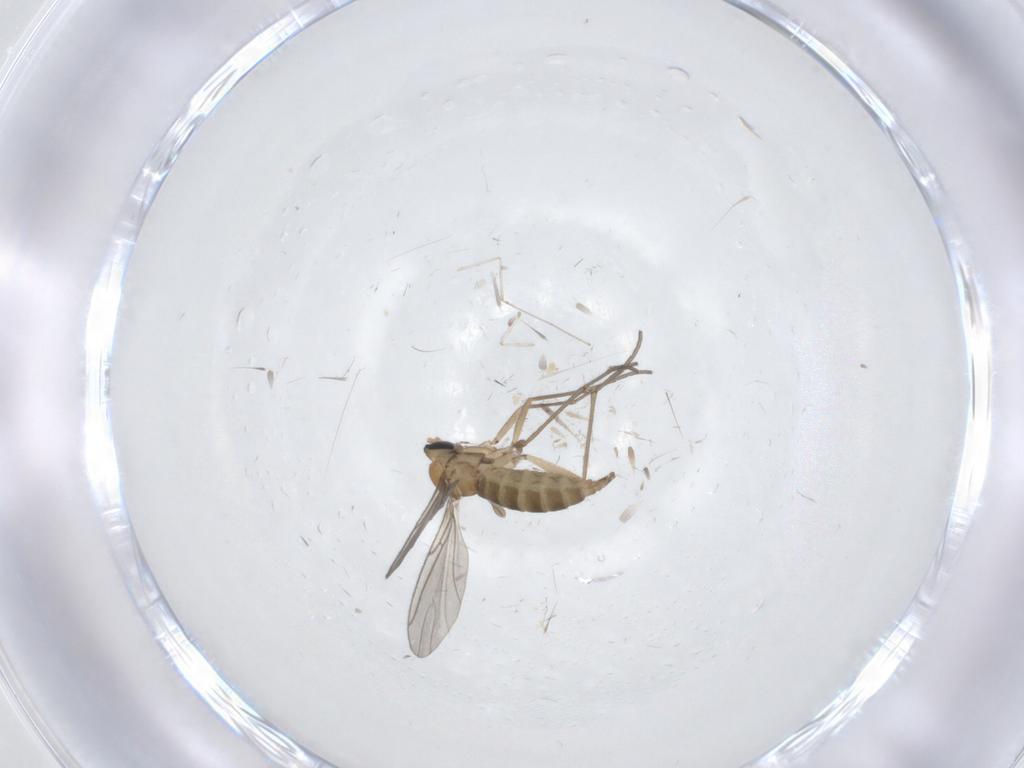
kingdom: Animalia
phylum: Arthropoda
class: Insecta
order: Diptera
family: Sciaridae
